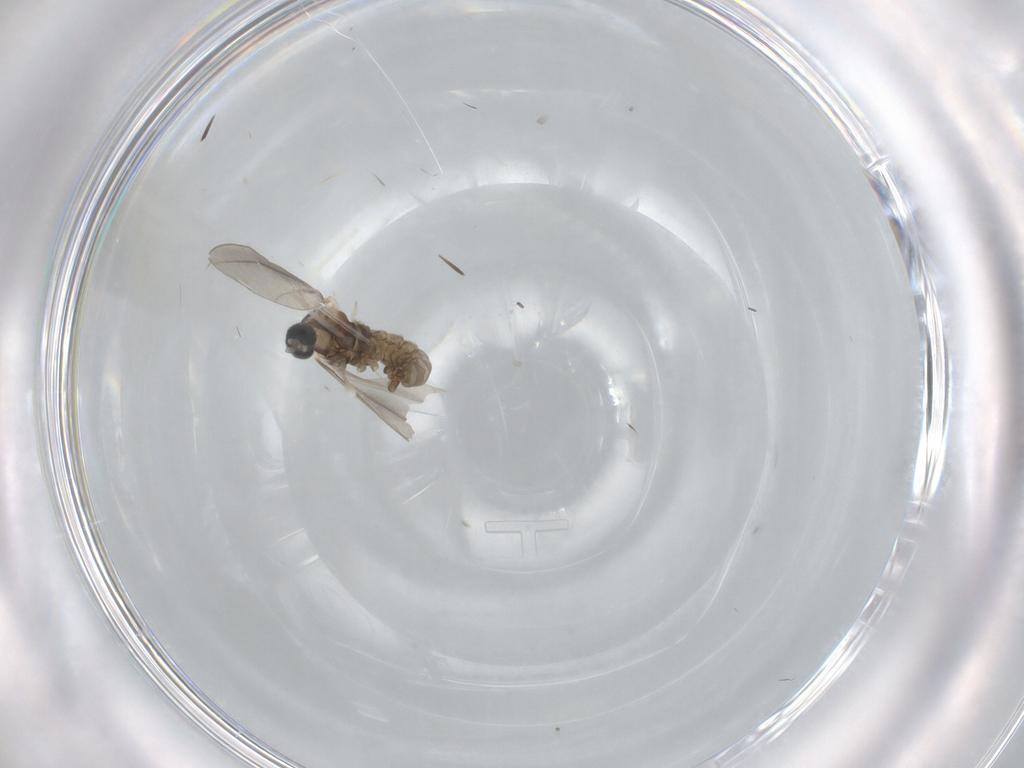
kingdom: Animalia
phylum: Arthropoda
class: Insecta
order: Diptera
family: Cecidomyiidae
